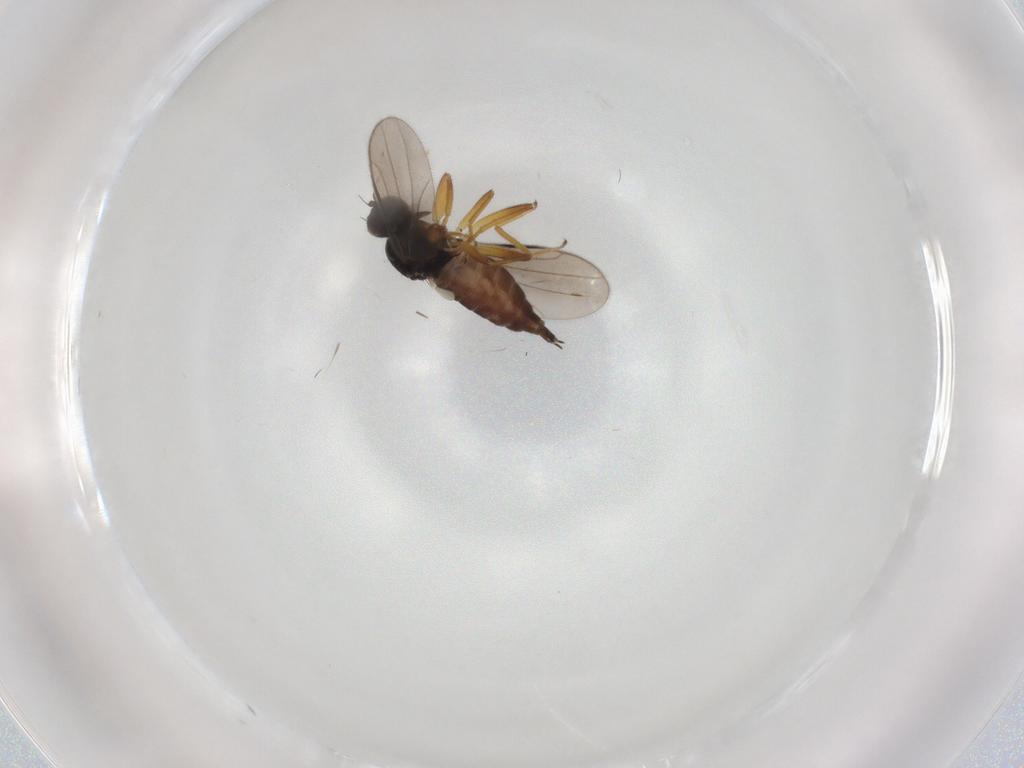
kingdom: Animalia
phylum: Arthropoda
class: Insecta
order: Diptera
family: Hybotidae
